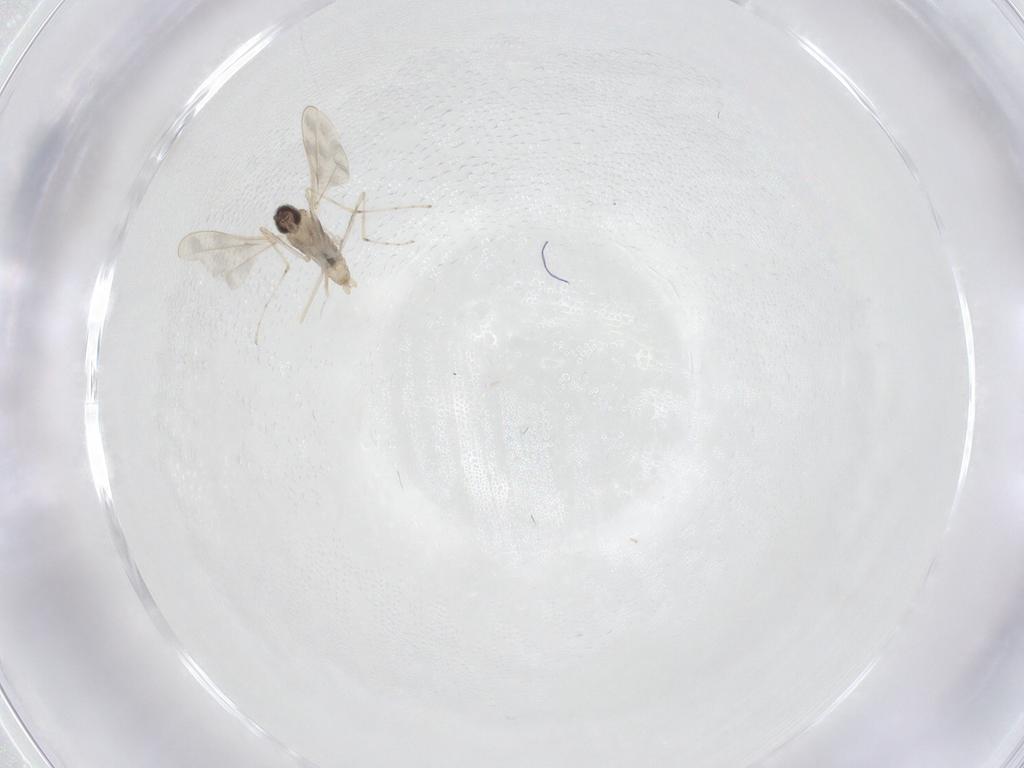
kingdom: Animalia
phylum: Arthropoda
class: Insecta
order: Diptera
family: Cecidomyiidae
